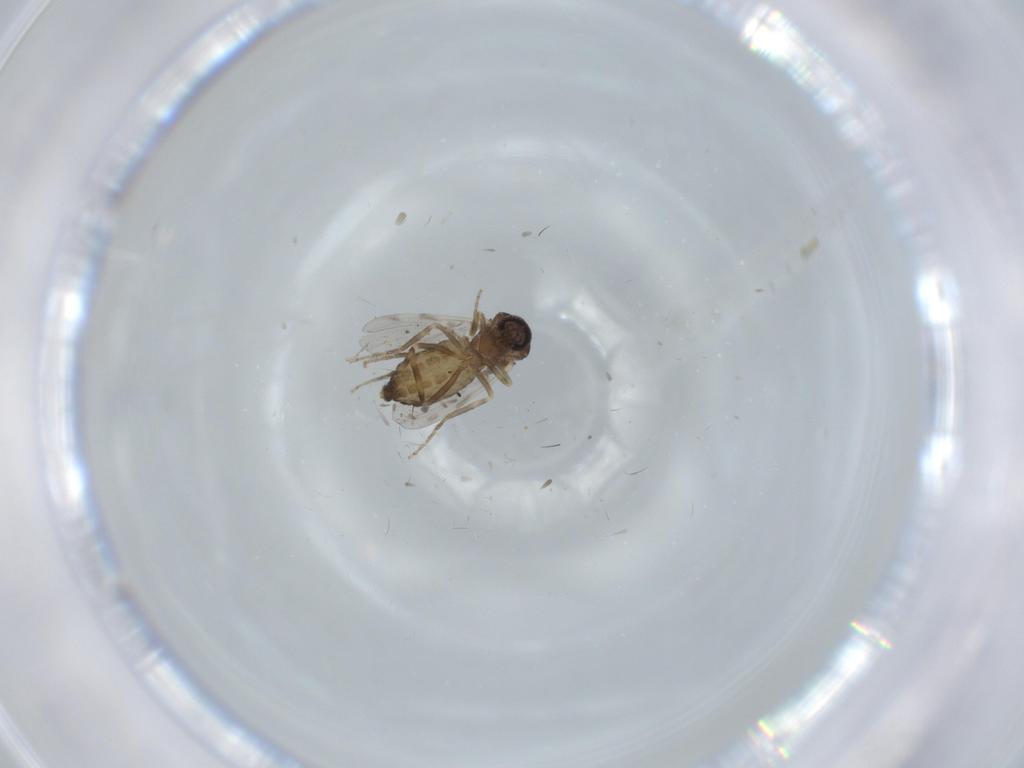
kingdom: Animalia
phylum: Arthropoda
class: Insecta
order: Diptera
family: Ceratopogonidae
